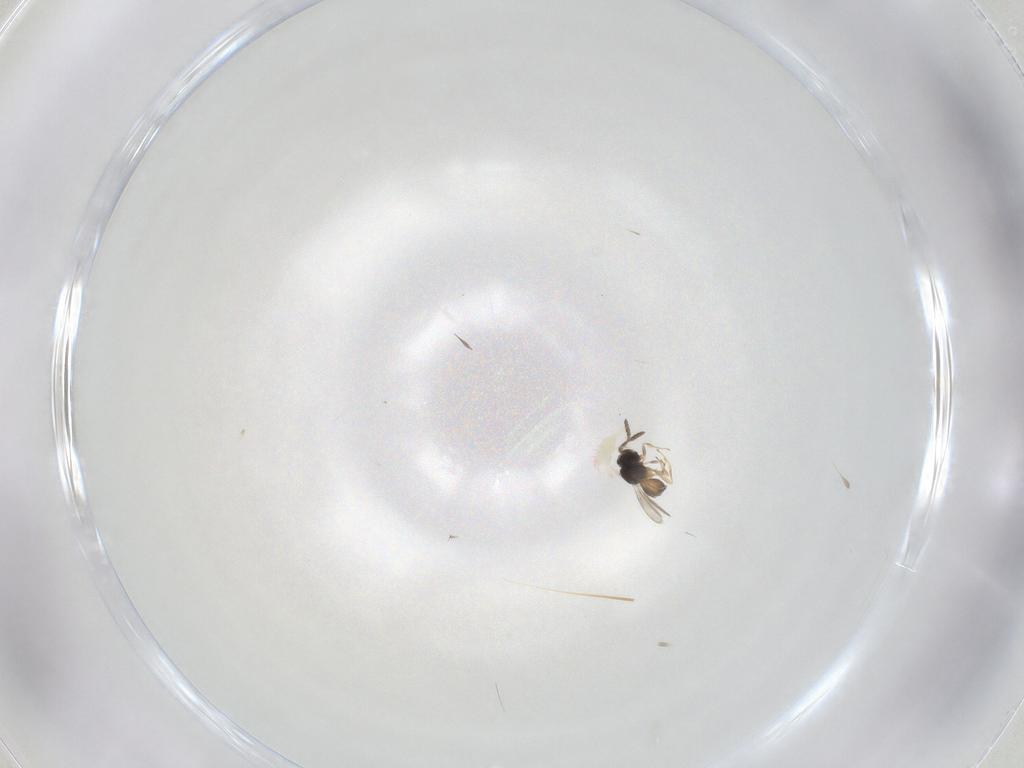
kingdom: Animalia
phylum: Arthropoda
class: Insecta
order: Hymenoptera
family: Scelionidae
